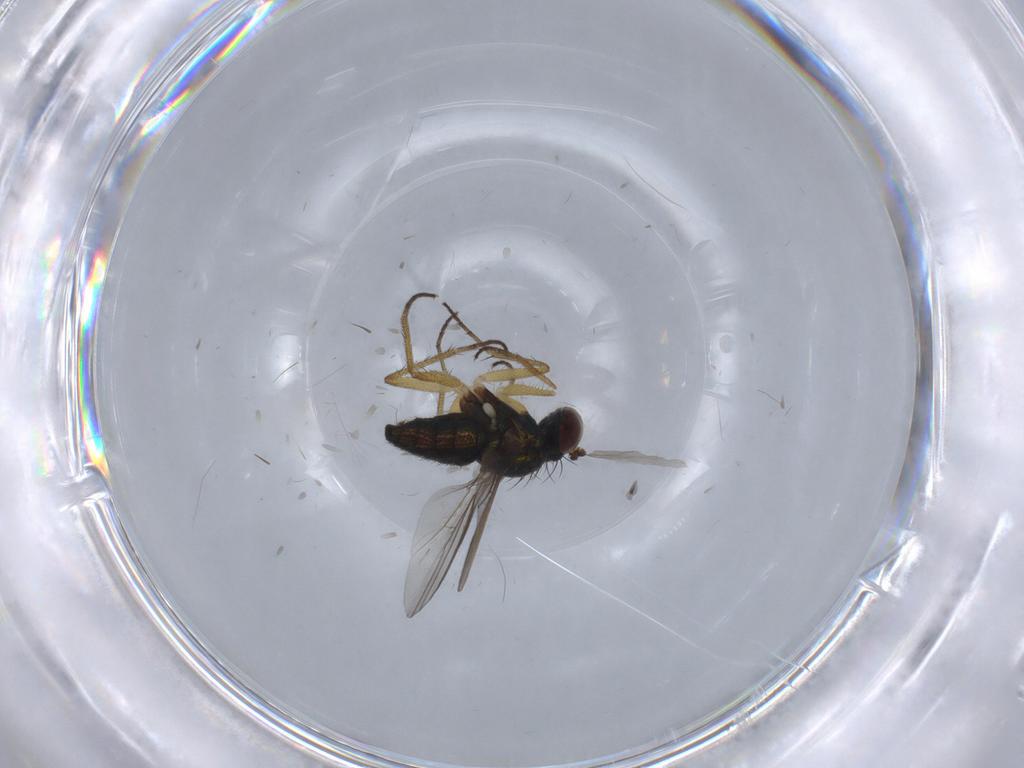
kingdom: Animalia
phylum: Arthropoda
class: Insecta
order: Diptera
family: Dolichopodidae
